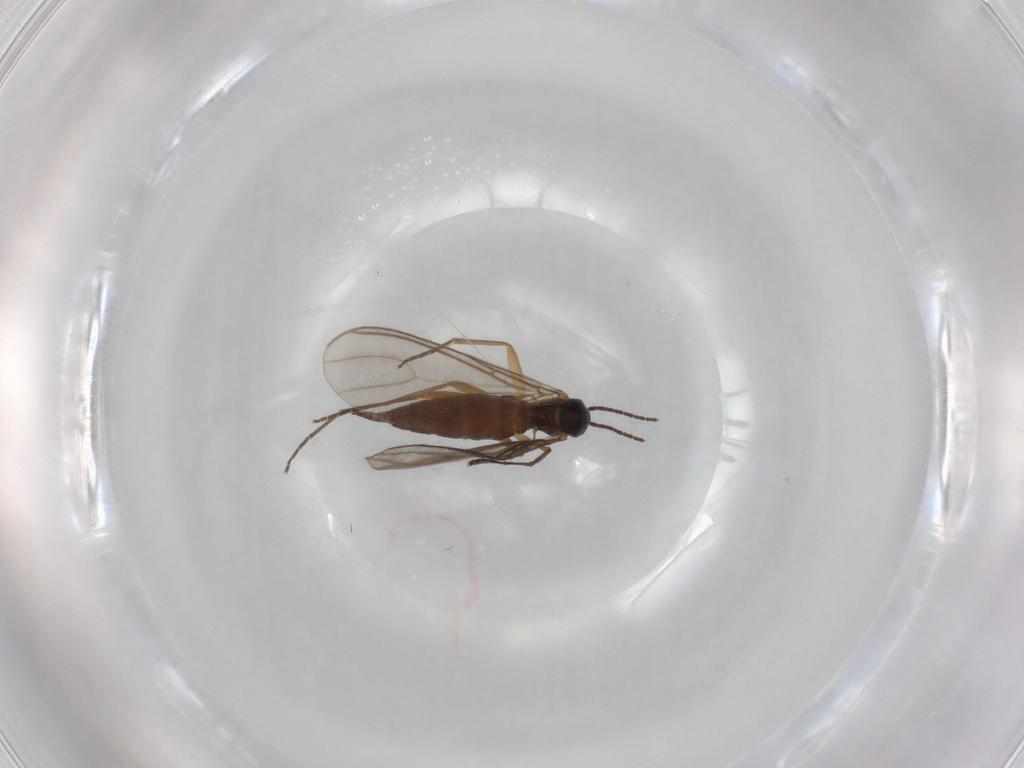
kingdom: Animalia
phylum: Arthropoda
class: Insecta
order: Diptera
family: Sciaridae
